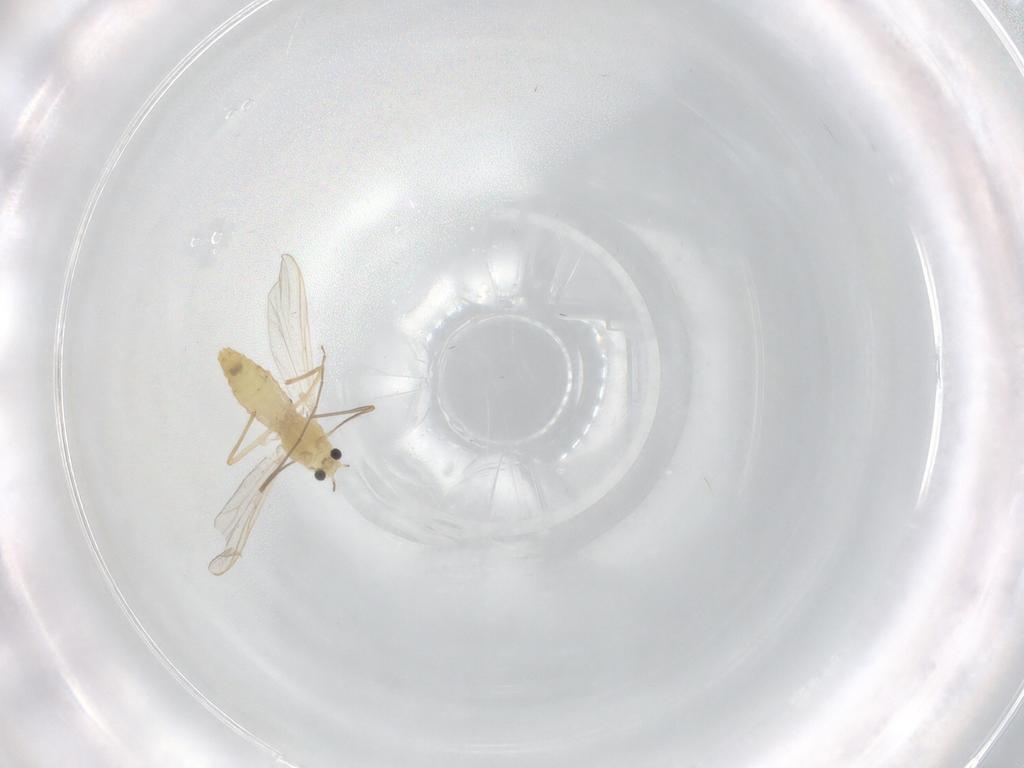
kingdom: Animalia
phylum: Arthropoda
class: Insecta
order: Diptera
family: Chironomidae
